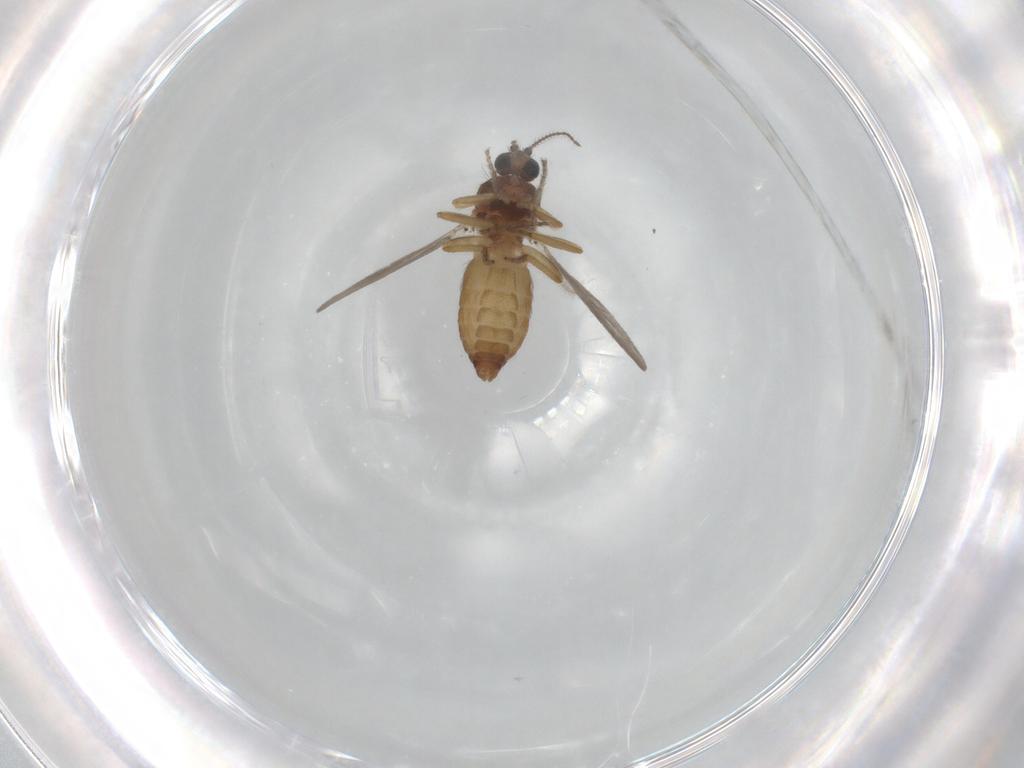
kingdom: Animalia
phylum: Arthropoda
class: Insecta
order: Diptera
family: Ceratopogonidae
